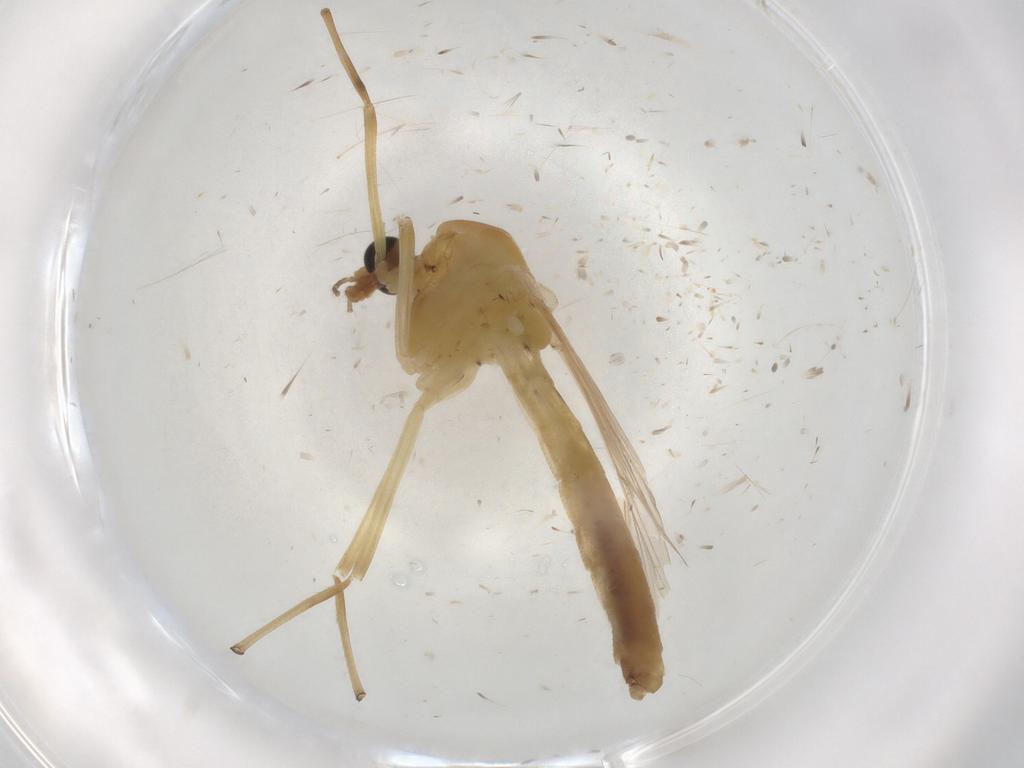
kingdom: Animalia
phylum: Arthropoda
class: Insecta
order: Diptera
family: Chironomidae
